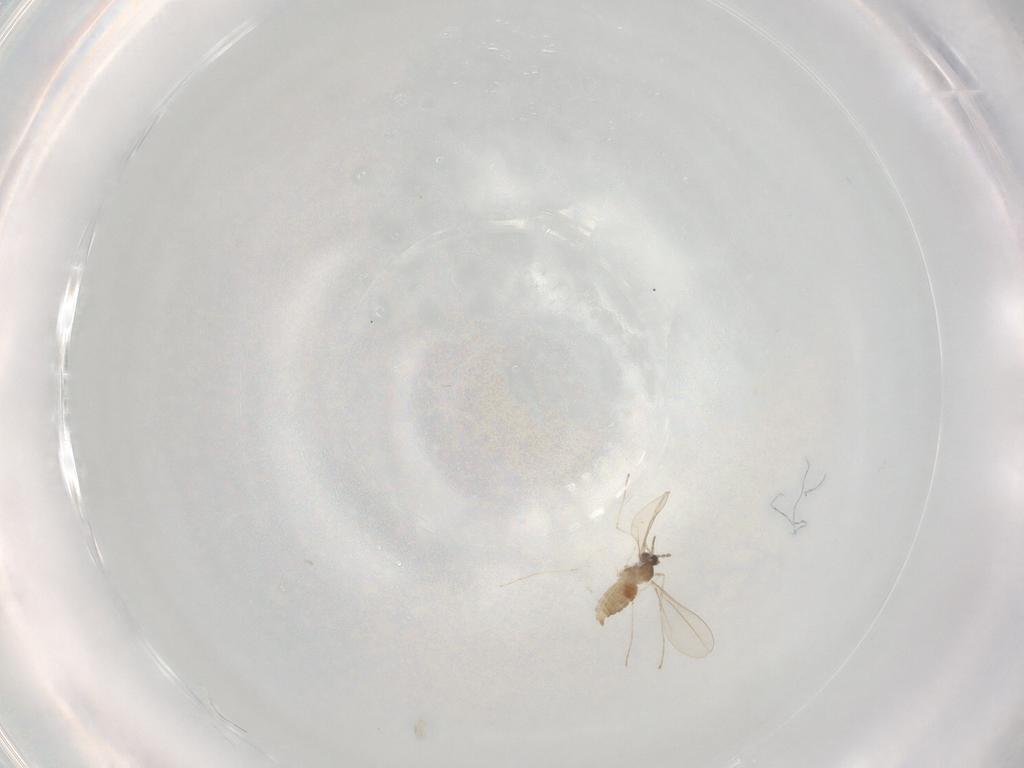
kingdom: Animalia
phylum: Arthropoda
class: Insecta
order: Diptera
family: Cecidomyiidae
